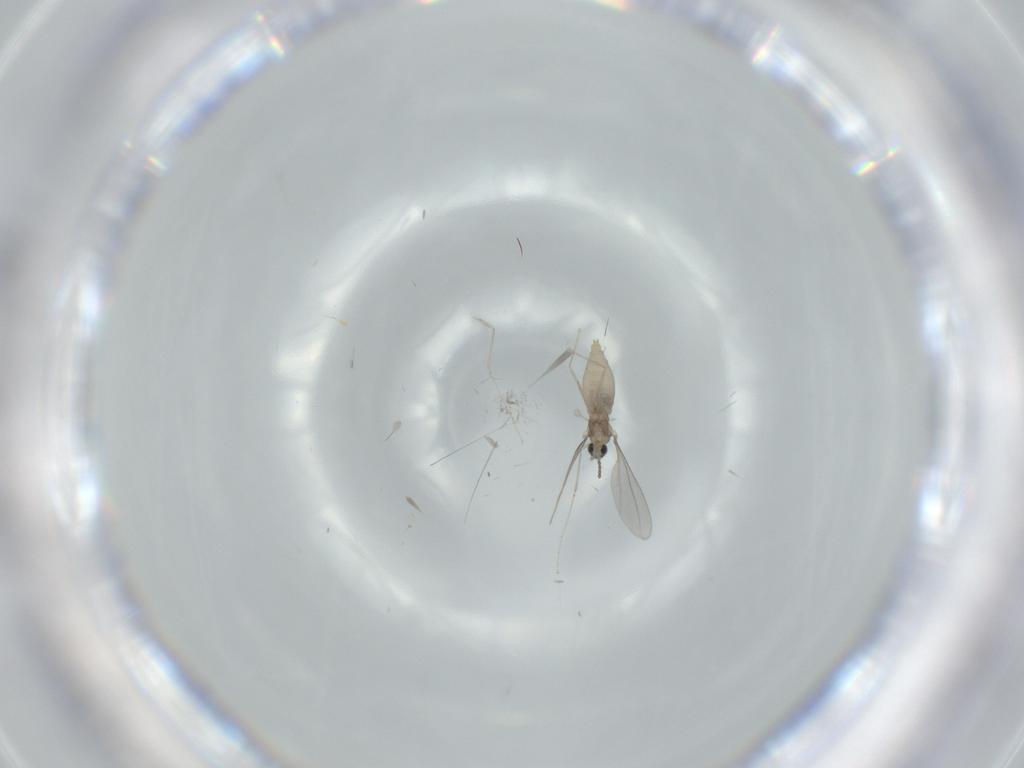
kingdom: Animalia
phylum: Arthropoda
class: Insecta
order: Diptera
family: Cecidomyiidae
